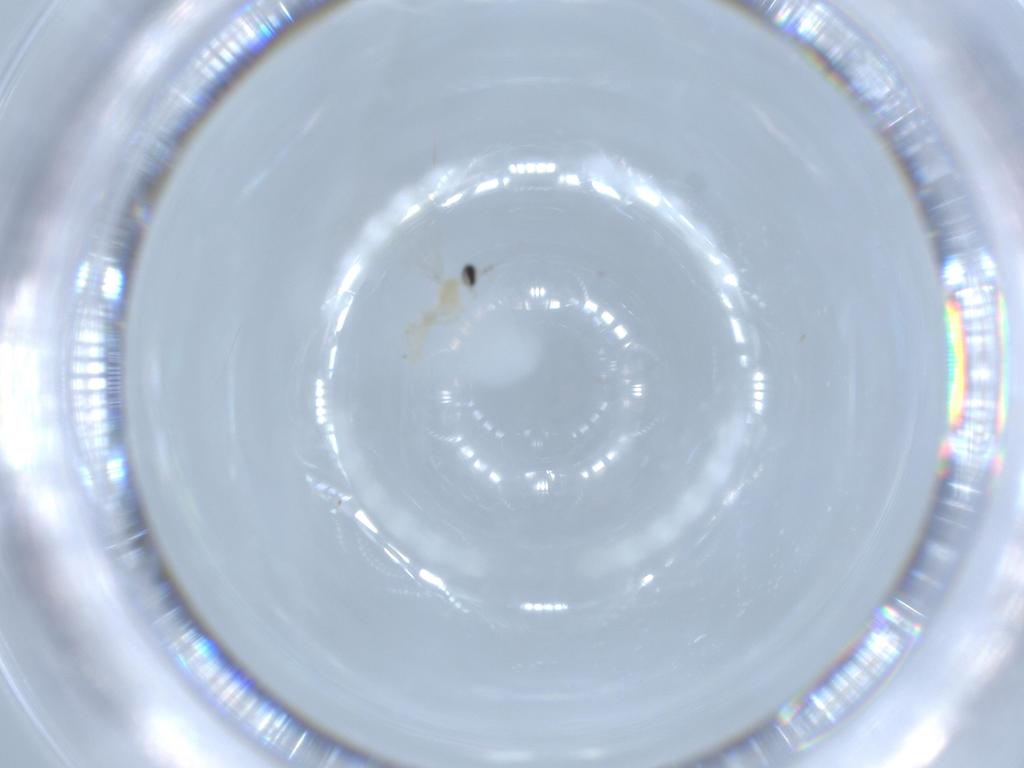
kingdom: Animalia
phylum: Arthropoda
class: Insecta
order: Diptera
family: Cecidomyiidae
